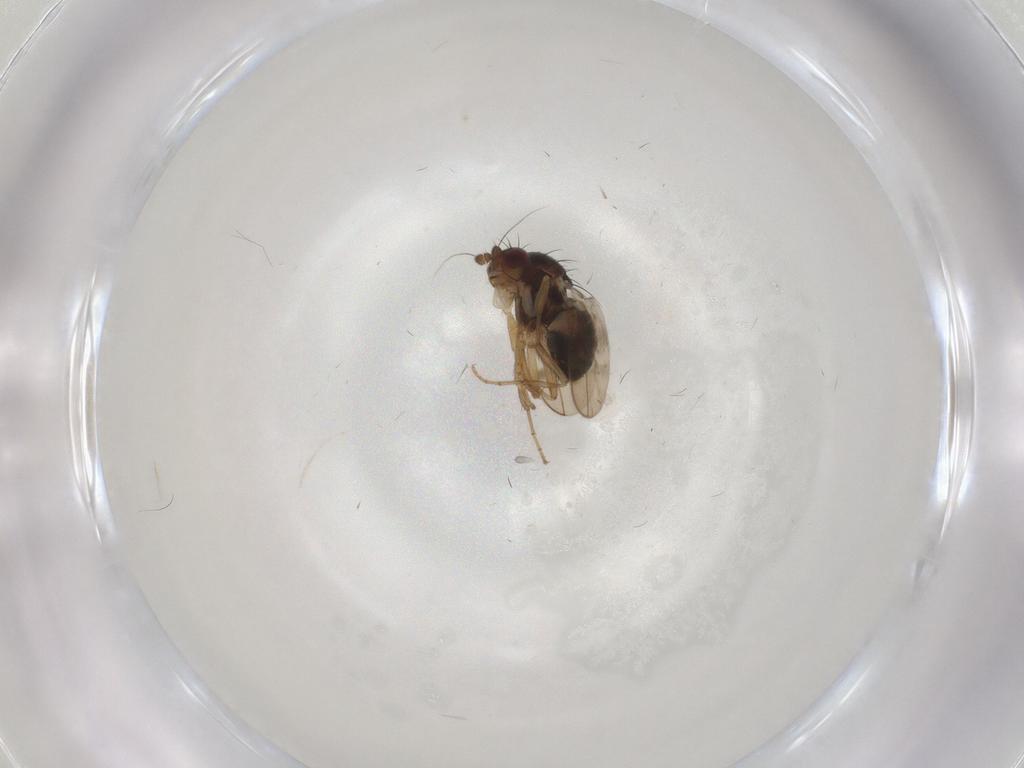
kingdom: Animalia
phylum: Arthropoda
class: Insecta
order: Diptera
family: Sphaeroceridae
